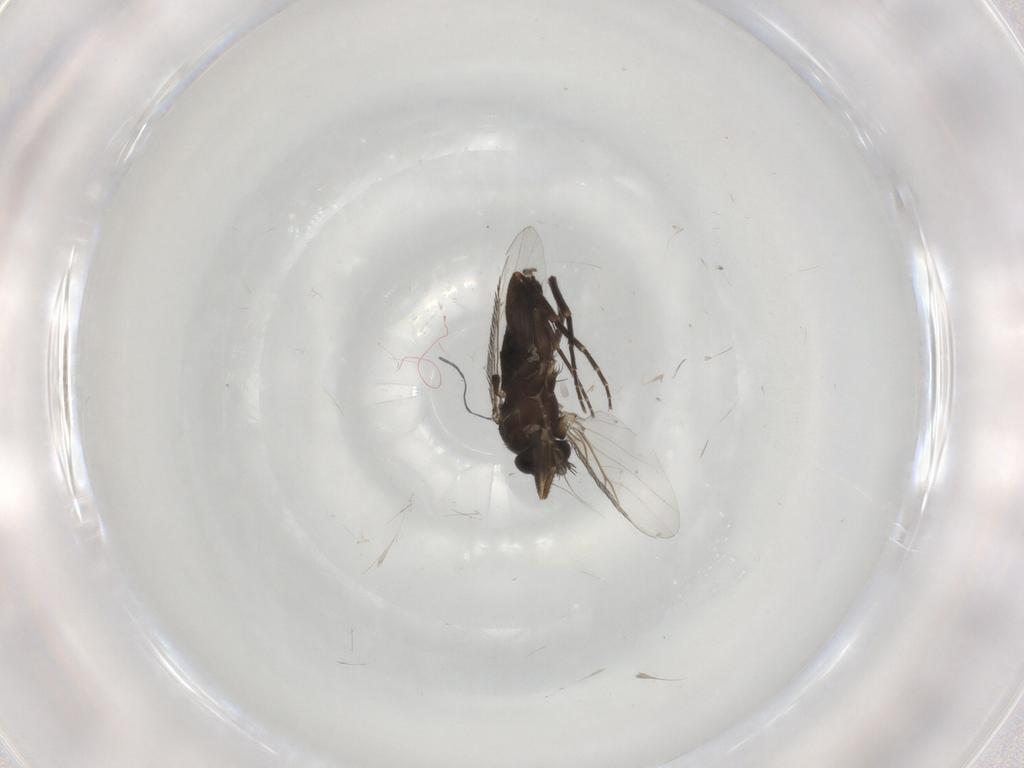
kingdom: Animalia
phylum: Arthropoda
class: Insecta
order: Diptera
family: Phoridae
